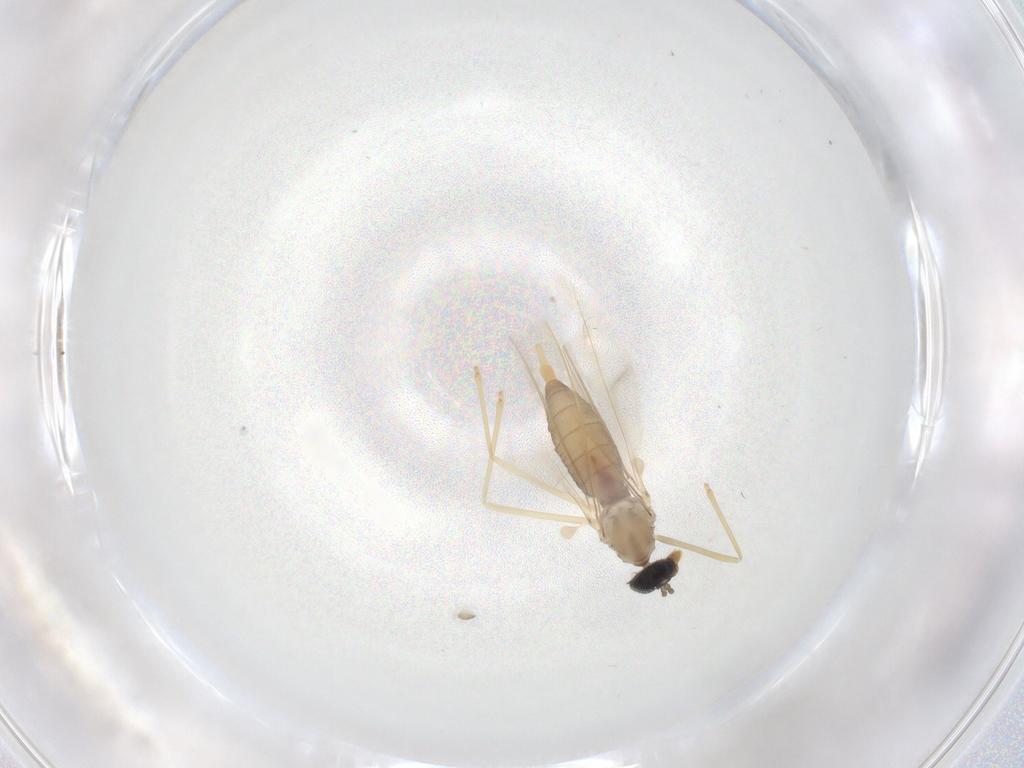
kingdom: Animalia
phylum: Arthropoda
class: Insecta
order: Diptera
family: Cecidomyiidae
